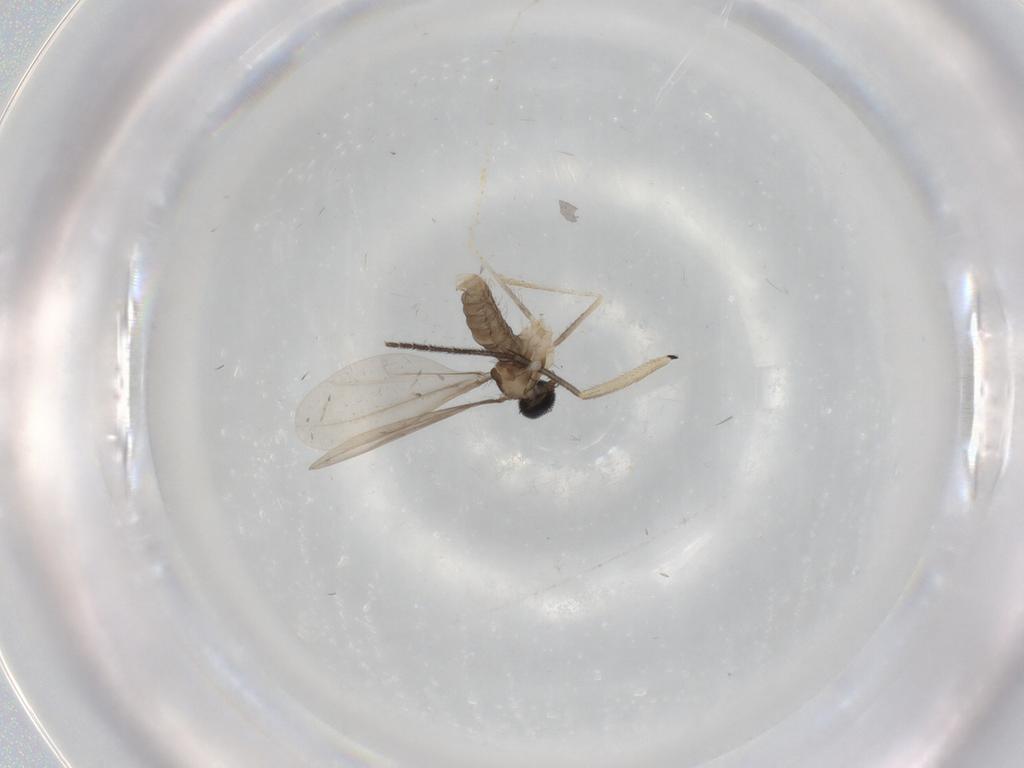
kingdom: Animalia
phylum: Arthropoda
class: Insecta
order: Diptera
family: Cecidomyiidae
